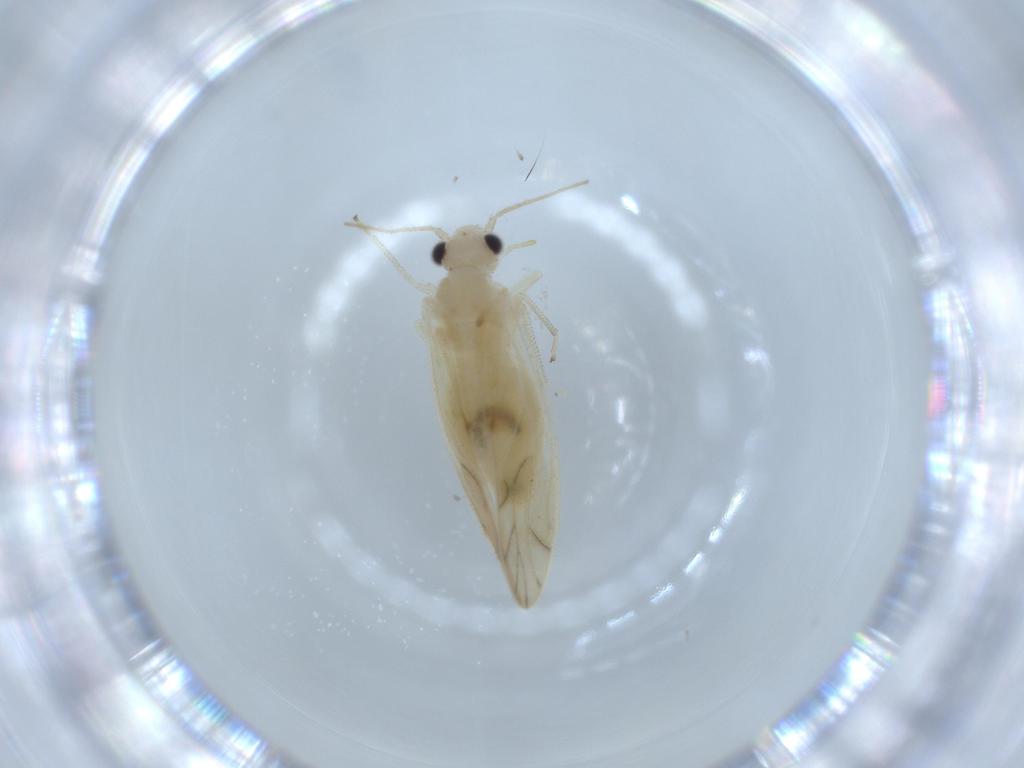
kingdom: Animalia
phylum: Arthropoda
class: Insecta
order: Psocodea
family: Caeciliusidae
